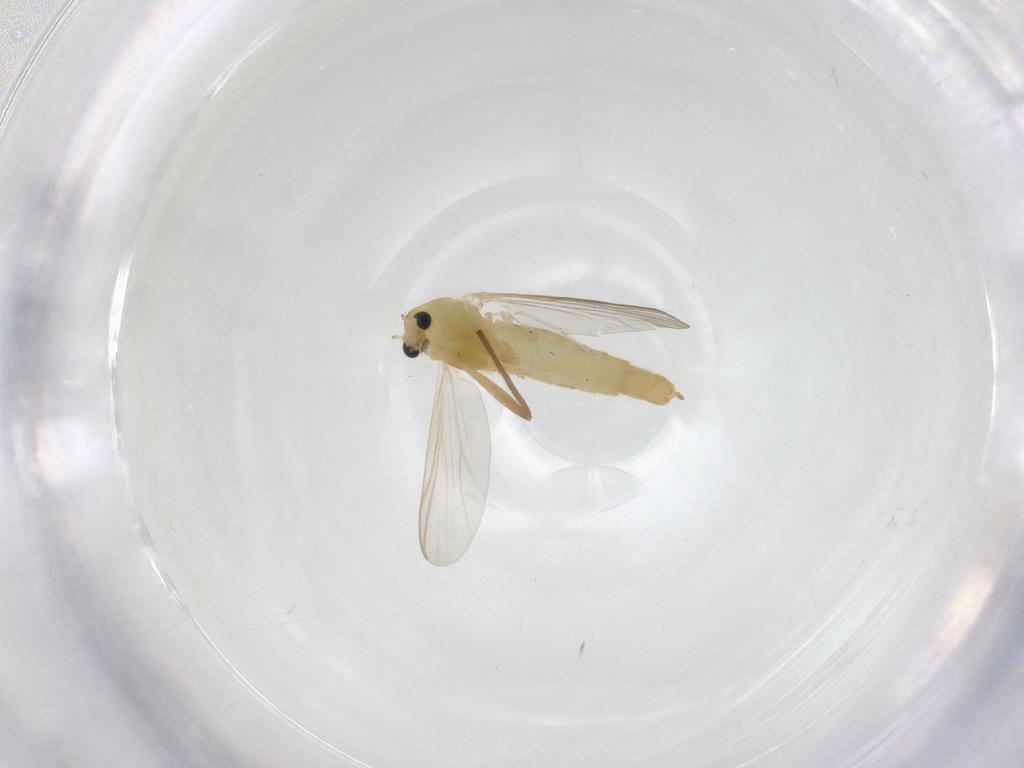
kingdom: Animalia
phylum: Arthropoda
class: Insecta
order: Diptera
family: Chironomidae
